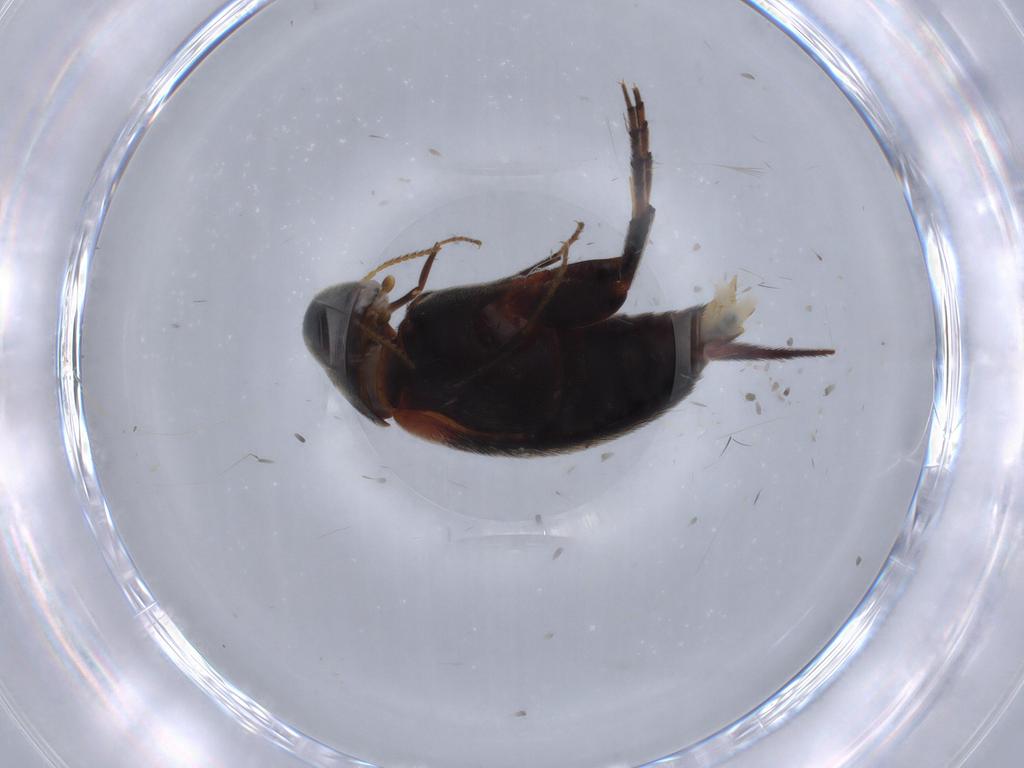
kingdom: Animalia
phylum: Arthropoda
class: Insecta
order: Coleoptera
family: Mordellidae
